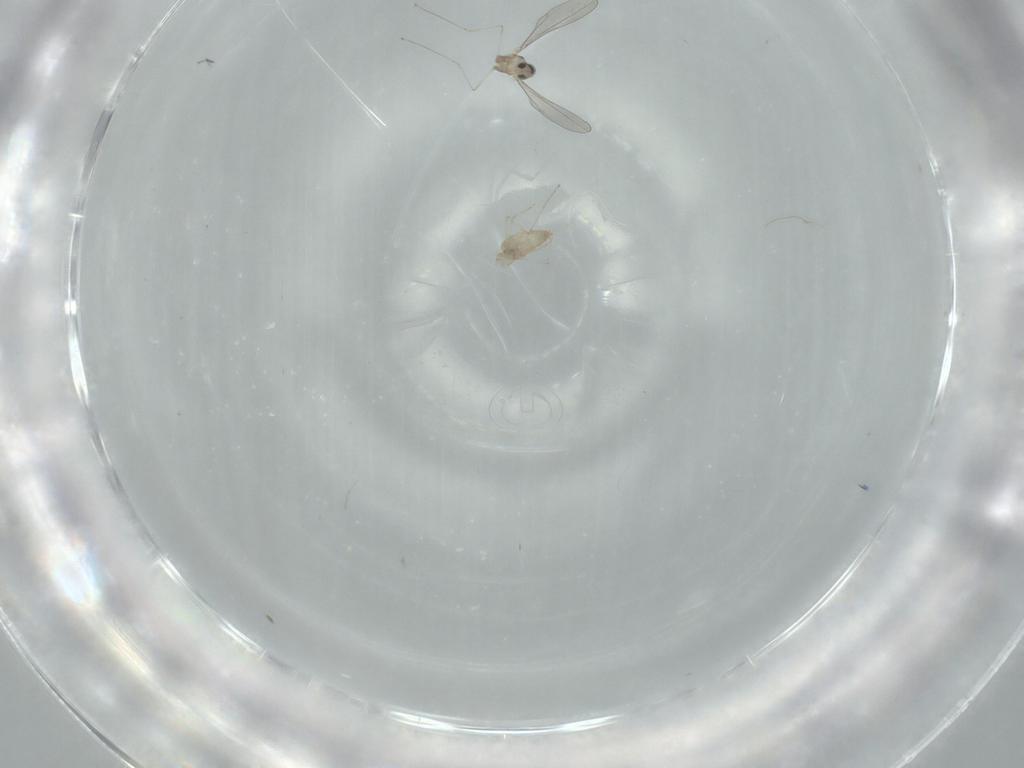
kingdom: Animalia
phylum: Arthropoda
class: Insecta
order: Diptera
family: Cecidomyiidae
